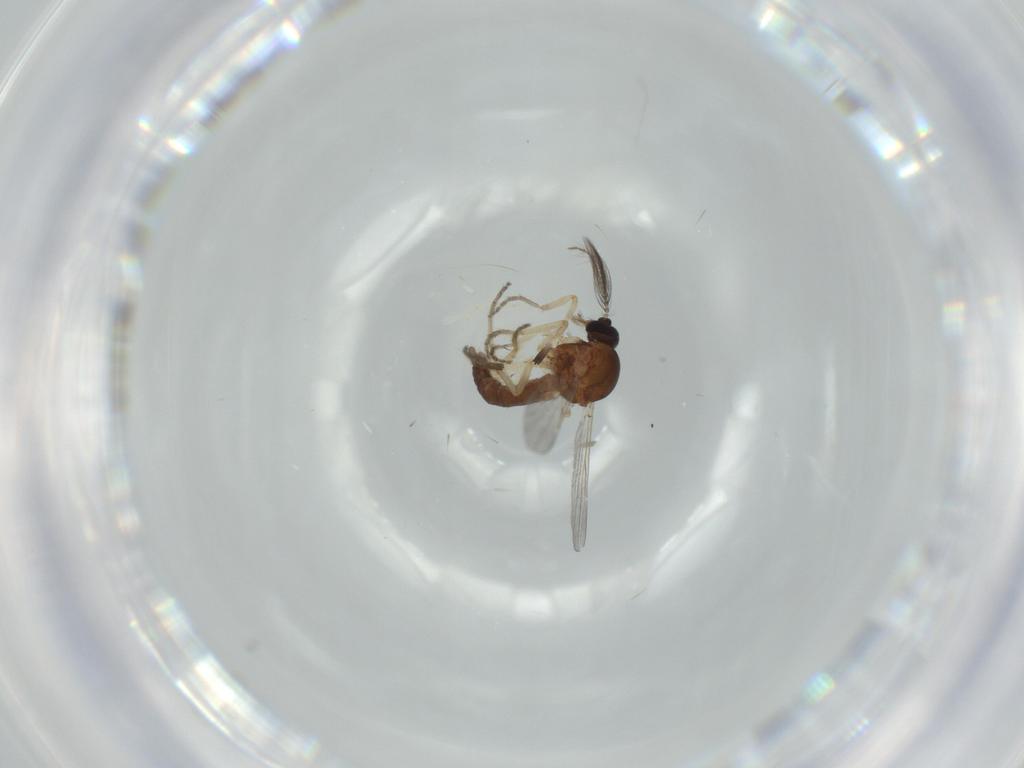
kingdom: Animalia
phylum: Arthropoda
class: Insecta
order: Diptera
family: Ceratopogonidae
